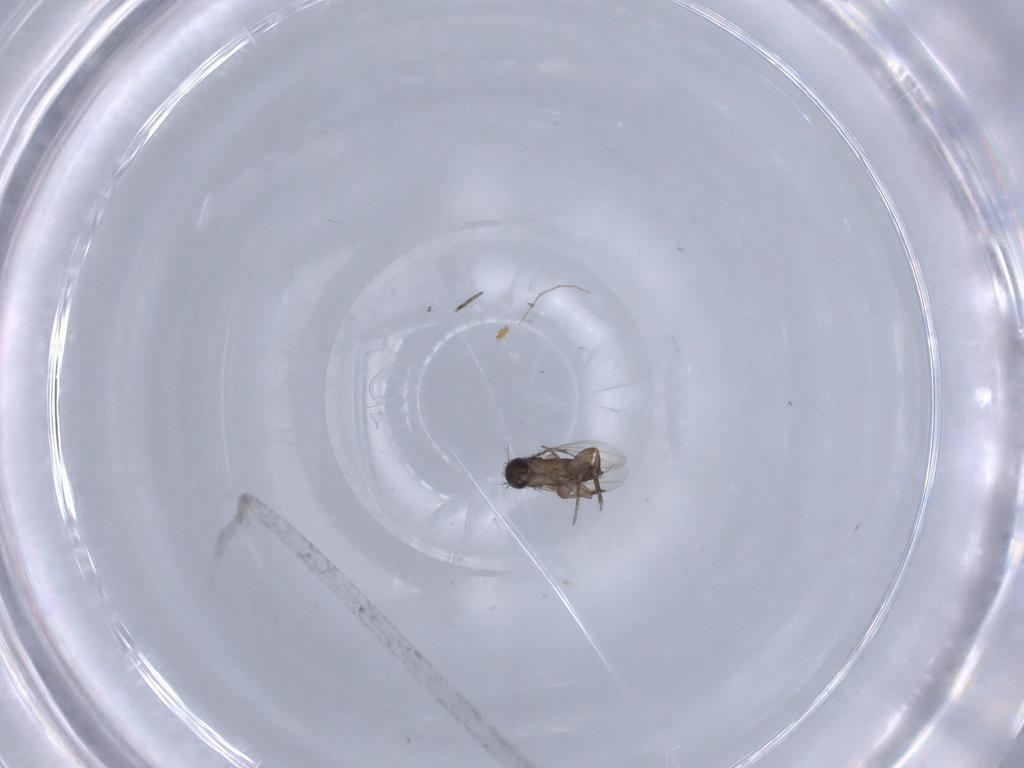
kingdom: Animalia
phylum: Arthropoda
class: Insecta
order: Diptera
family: Phoridae
